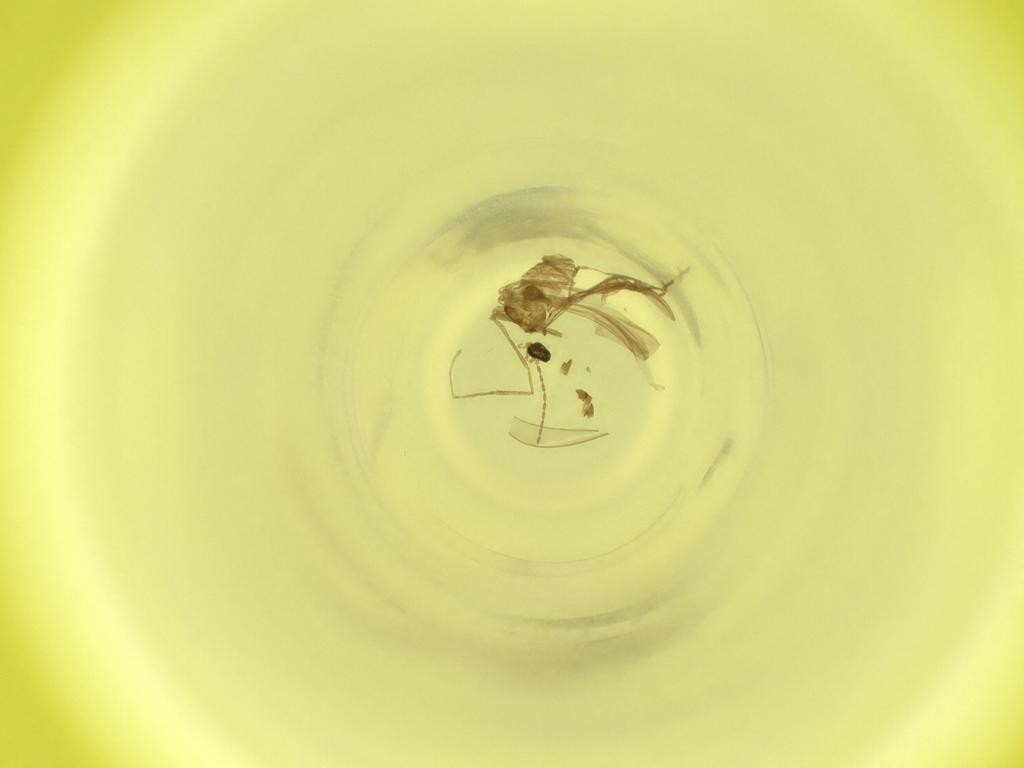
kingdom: Animalia
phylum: Arthropoda
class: Insecta
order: Diptera
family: Cecidomyiidae
